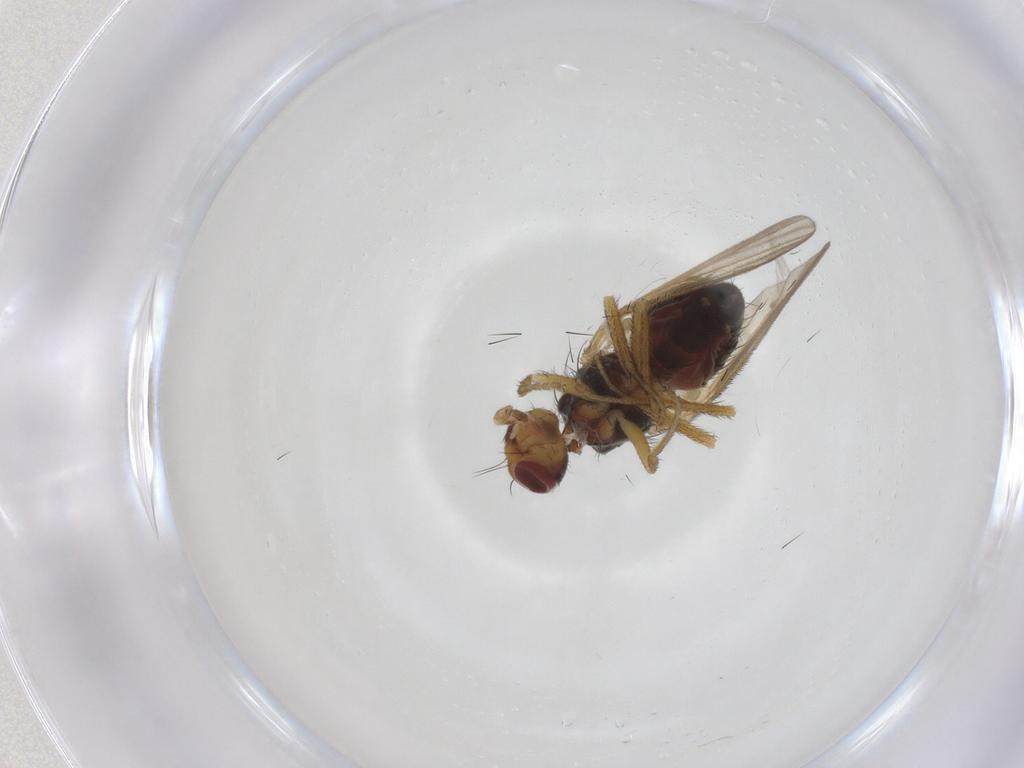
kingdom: Animalia
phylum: Arthropoda
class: Insecta
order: Diptera
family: Heleomyzidae
